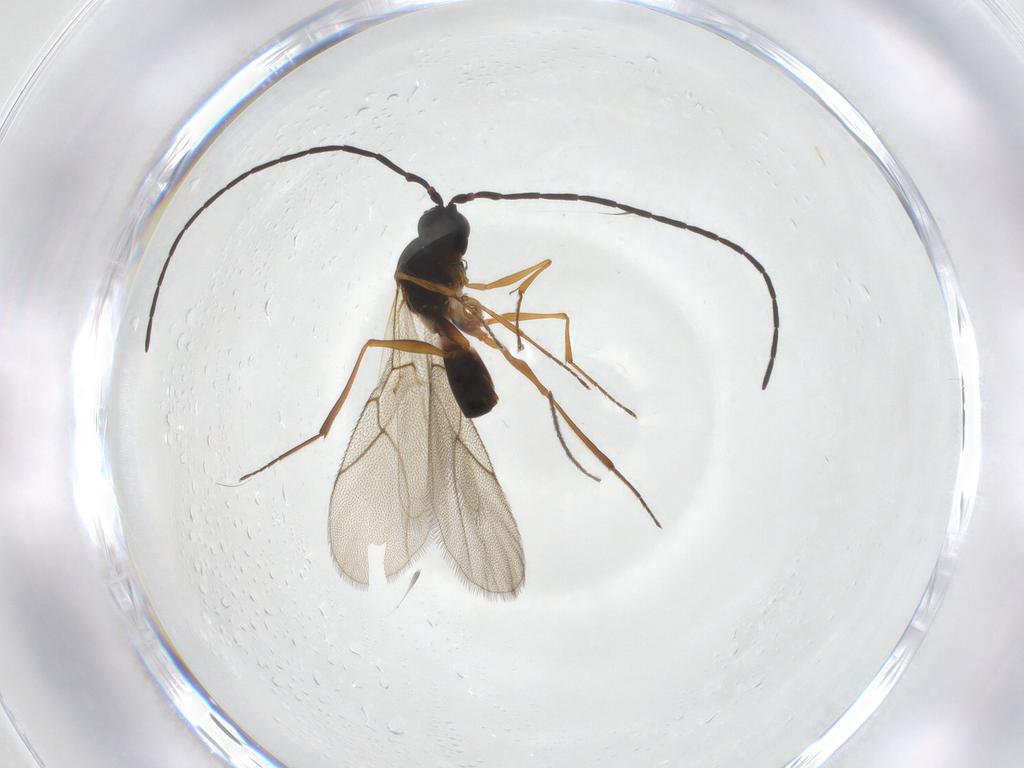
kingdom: Animalia
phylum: Arthropoda
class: Insecta
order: Hymenoptera
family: Figitidae
